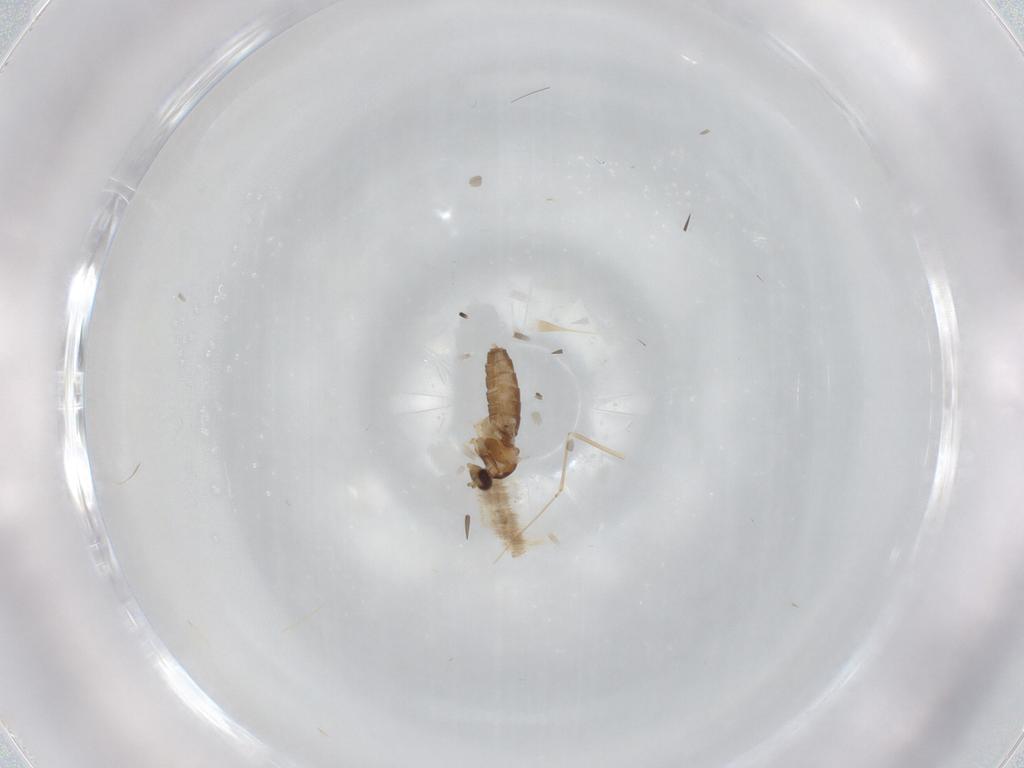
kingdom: Animalia
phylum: Arthropoda
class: Insecta
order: Diptera
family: Cecidomyiidae
